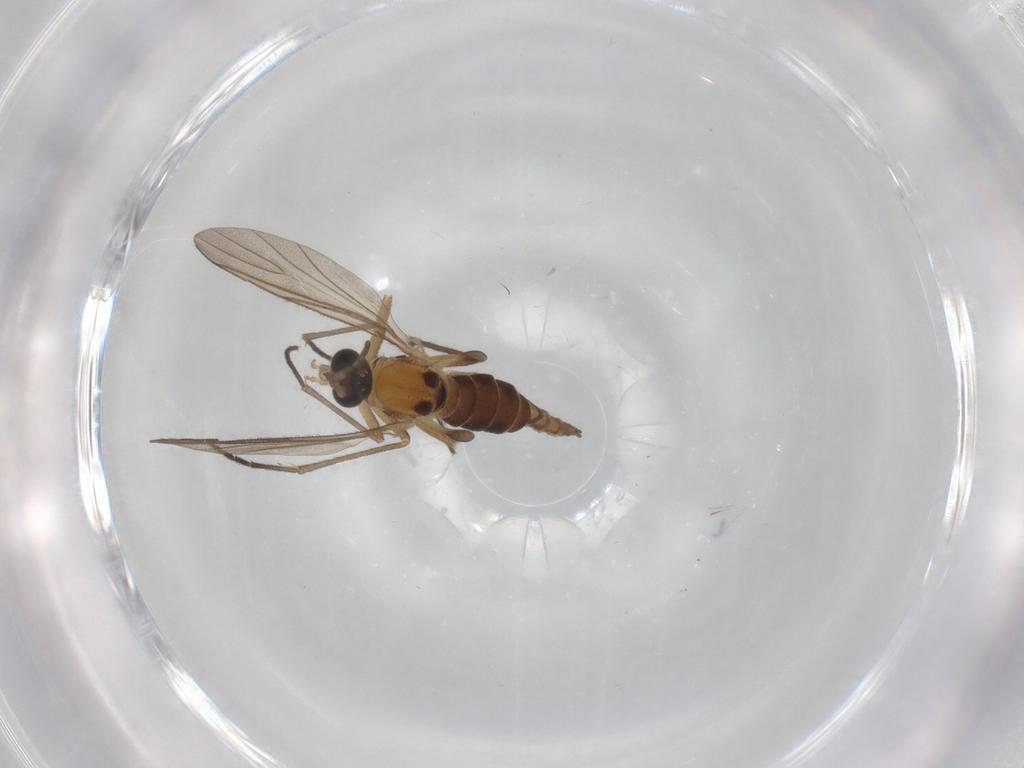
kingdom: Animalia
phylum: Arthropoda
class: Insecta
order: Diptera
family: Sciaridae
